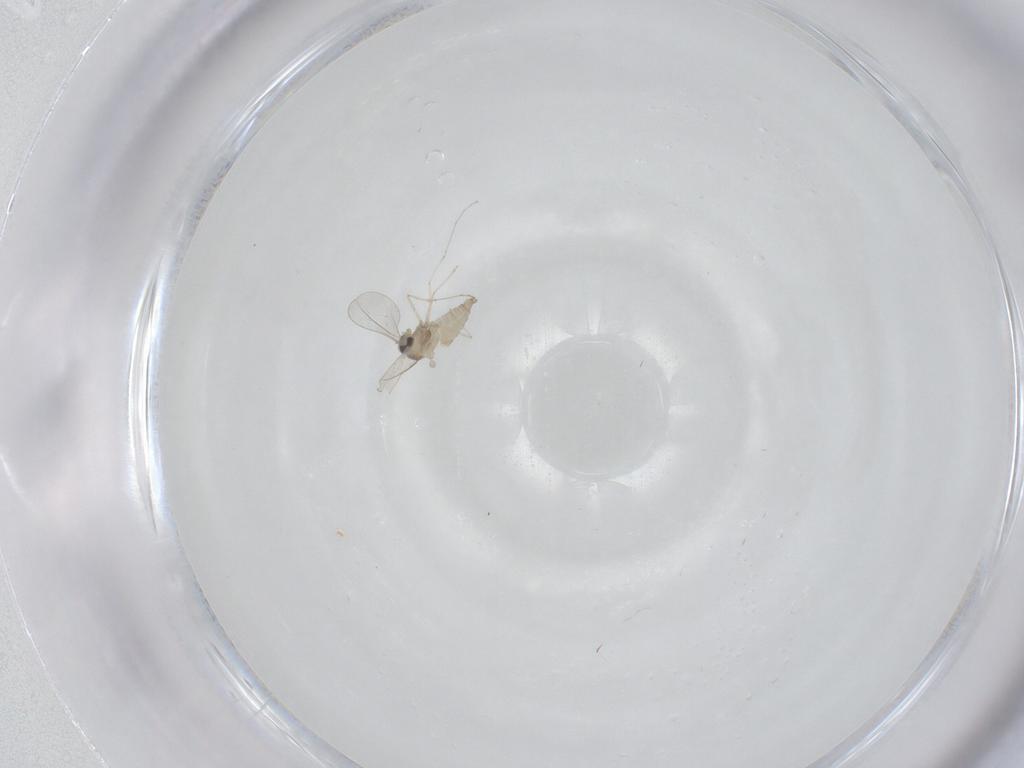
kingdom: Animalia
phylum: Arthropoda
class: Insecta
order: Diptera
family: Cecidomyiidae
